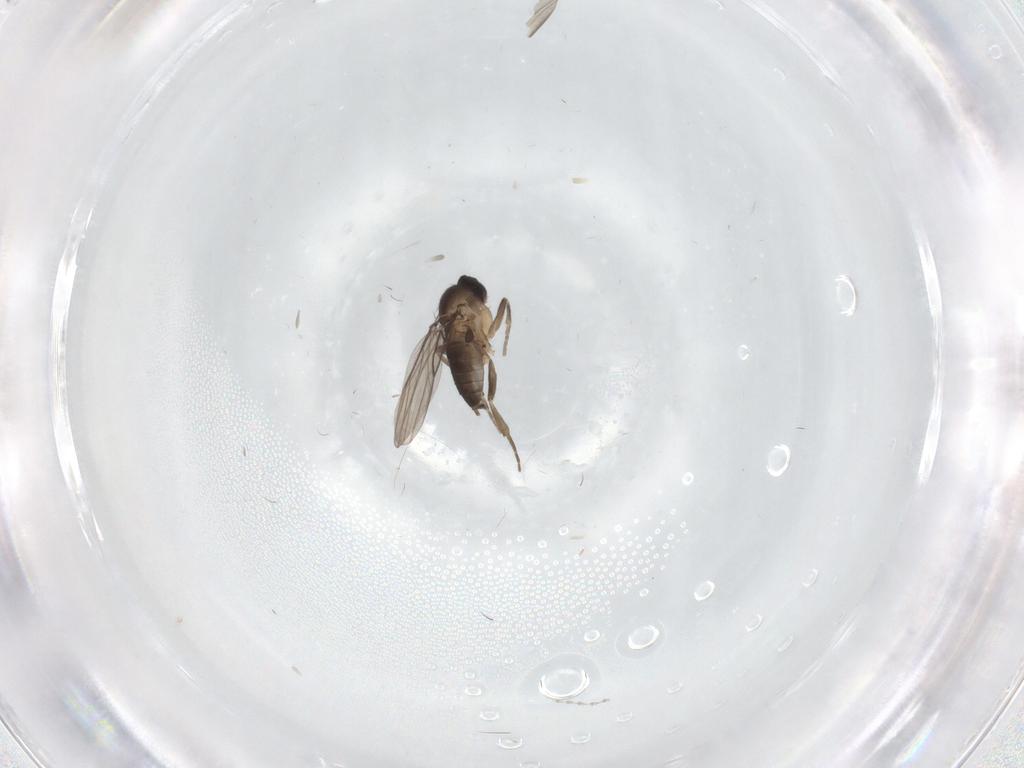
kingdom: Animalia
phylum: Arthropoda
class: Insecta
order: Diptera
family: Phoridae
